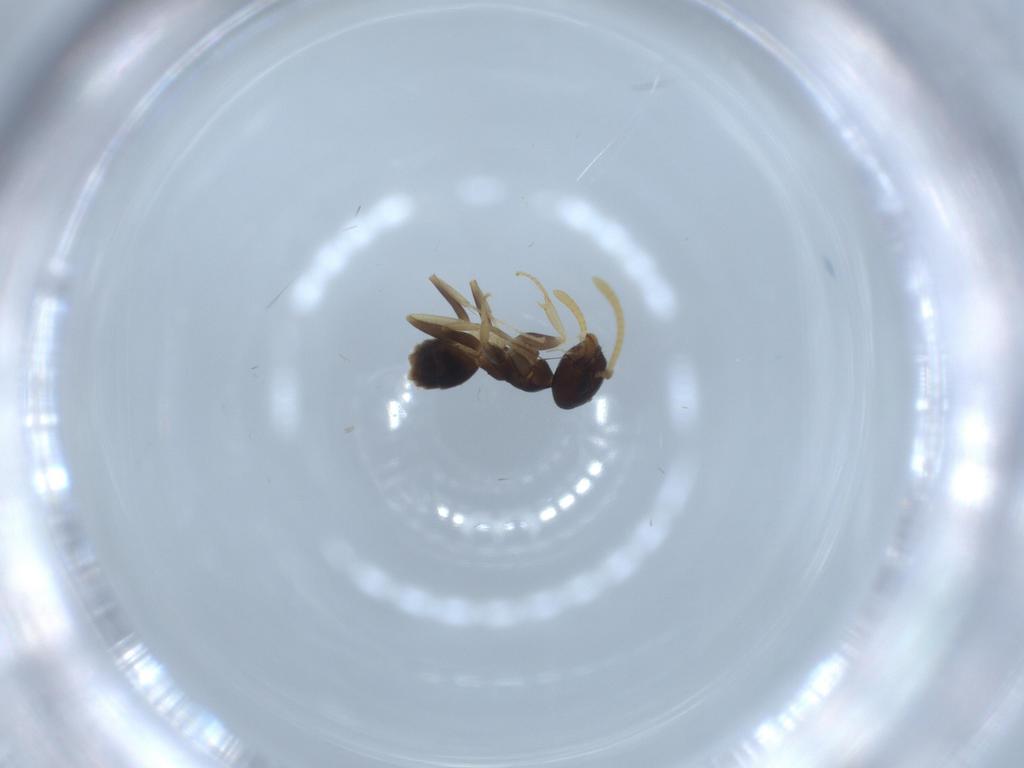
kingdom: Animalia
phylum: Arthropoda
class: Insecta
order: Hymenoptera
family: Formicidae
